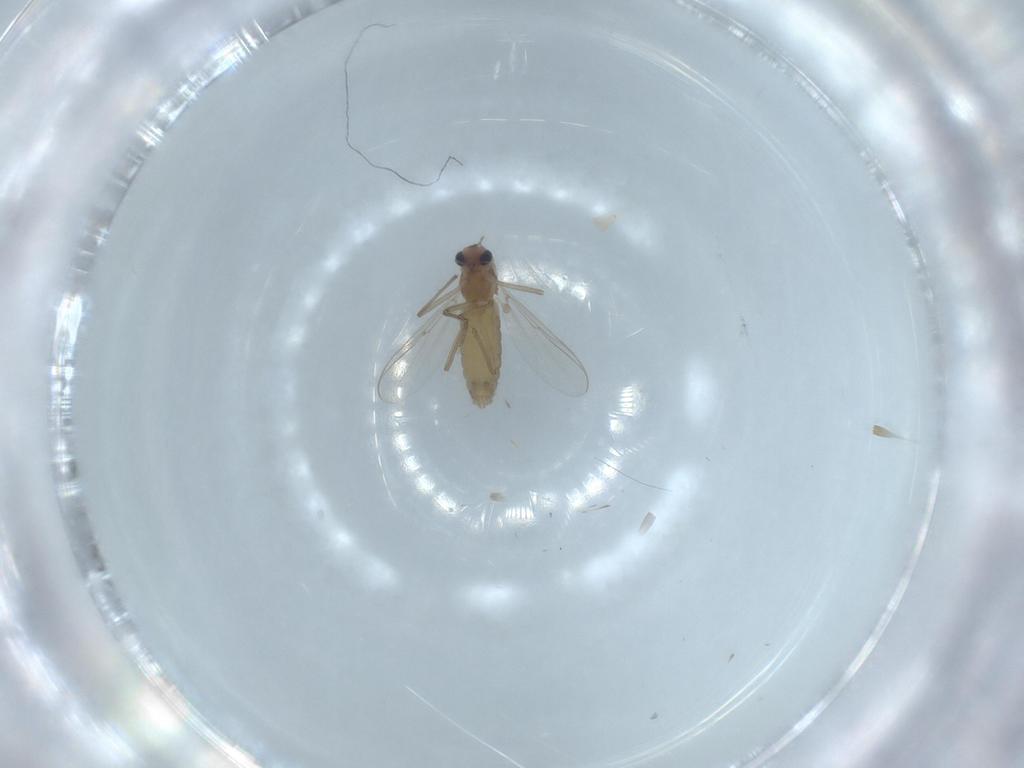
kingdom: Animalia
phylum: Arthropoda
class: Insecta
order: Diptera
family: Chironomidae
